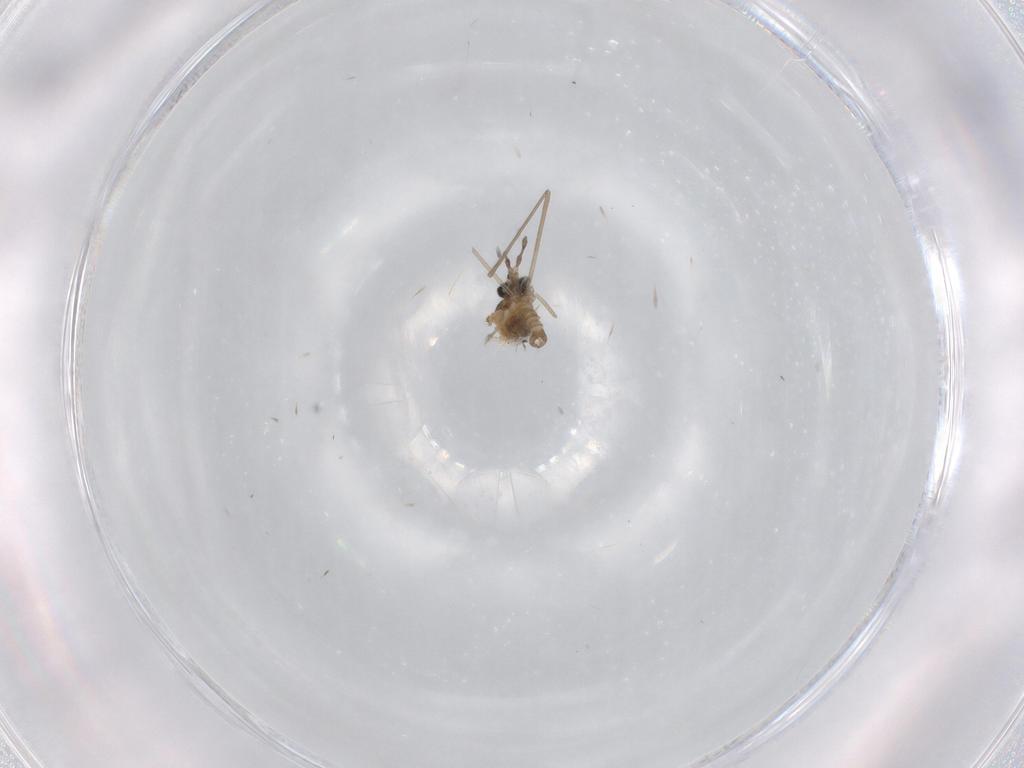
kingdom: Animalia
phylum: Arthropoda
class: Insecta
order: Diptera
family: Cecidomyiidae
